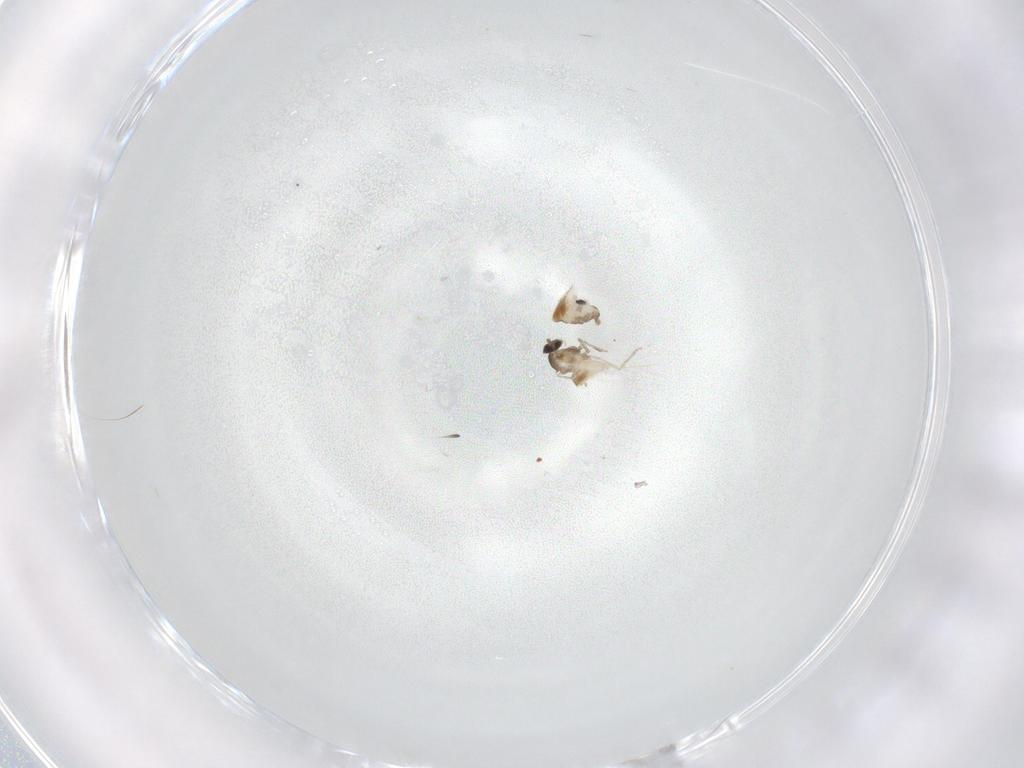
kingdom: Animalia
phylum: Arthropoda
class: Insecta
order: Diptera
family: Cecidomyiidae
